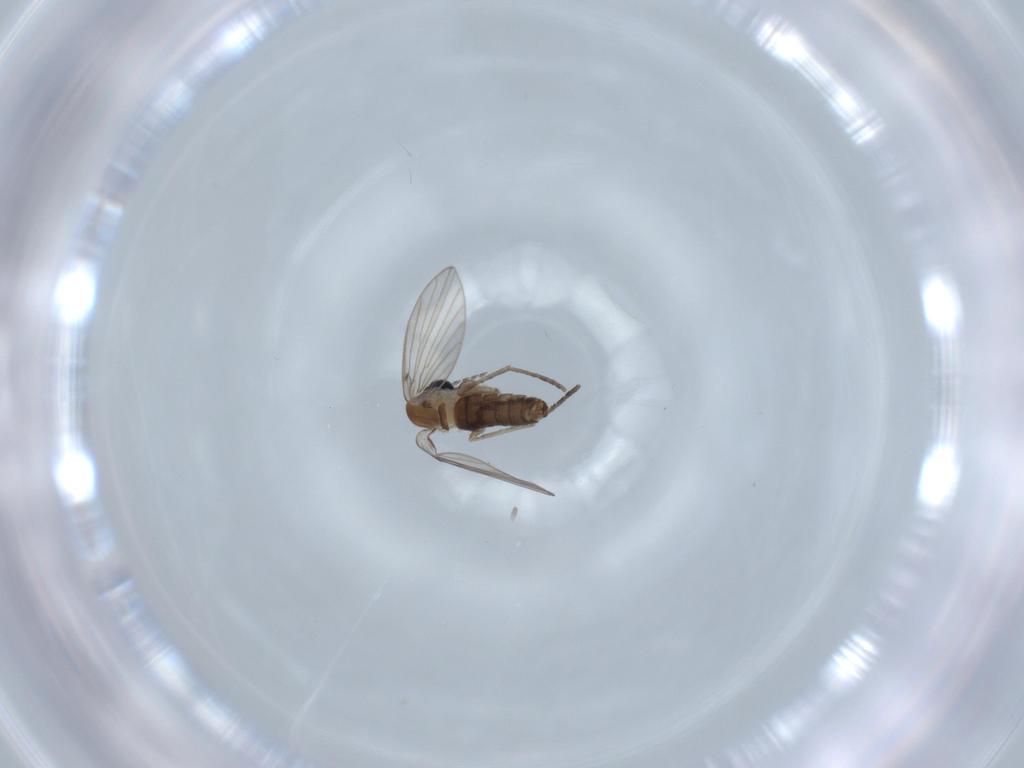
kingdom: Animalia
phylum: Arthropoda
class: Insecta
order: Diptera
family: Psychodidae
